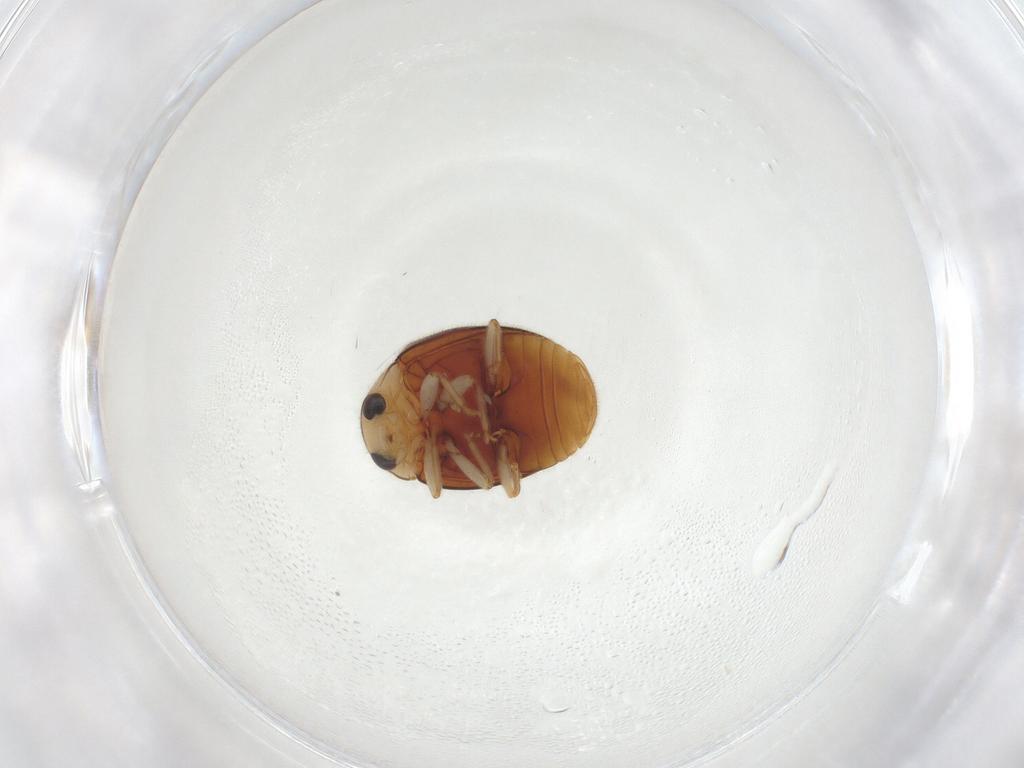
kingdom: Animalia
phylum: Arthropoda
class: Insecta
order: Coleoptera
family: Coccinellidae
